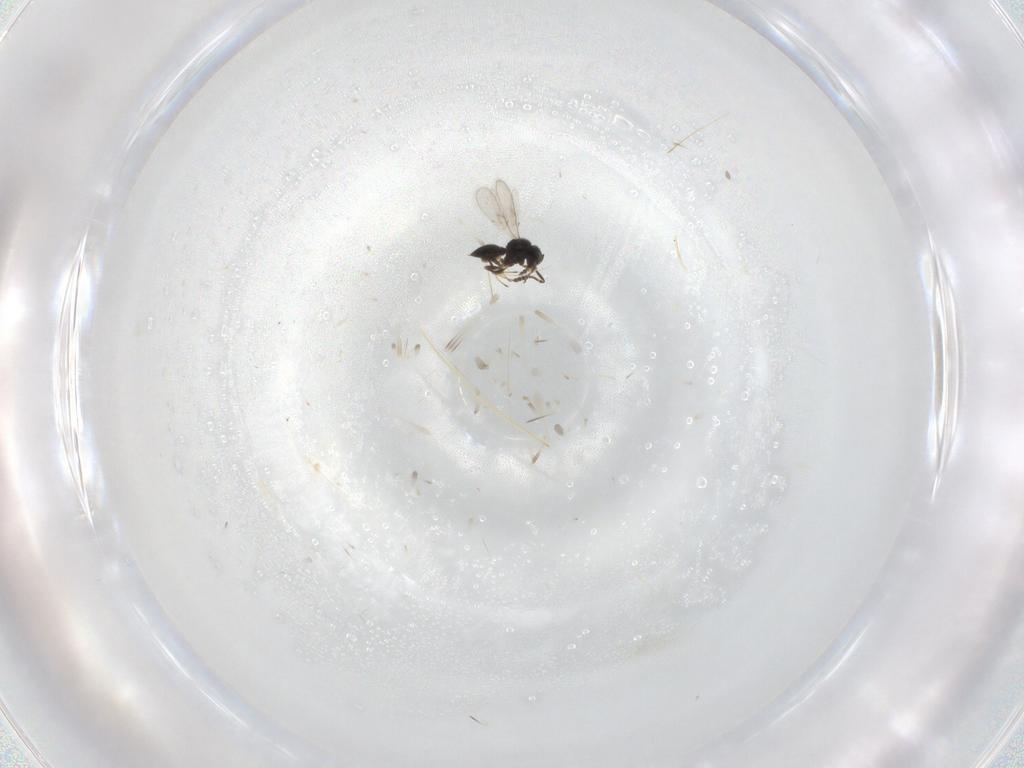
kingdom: Animalia
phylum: Arthropoda
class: Insecta
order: Hymenoptera
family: Scelionidae
